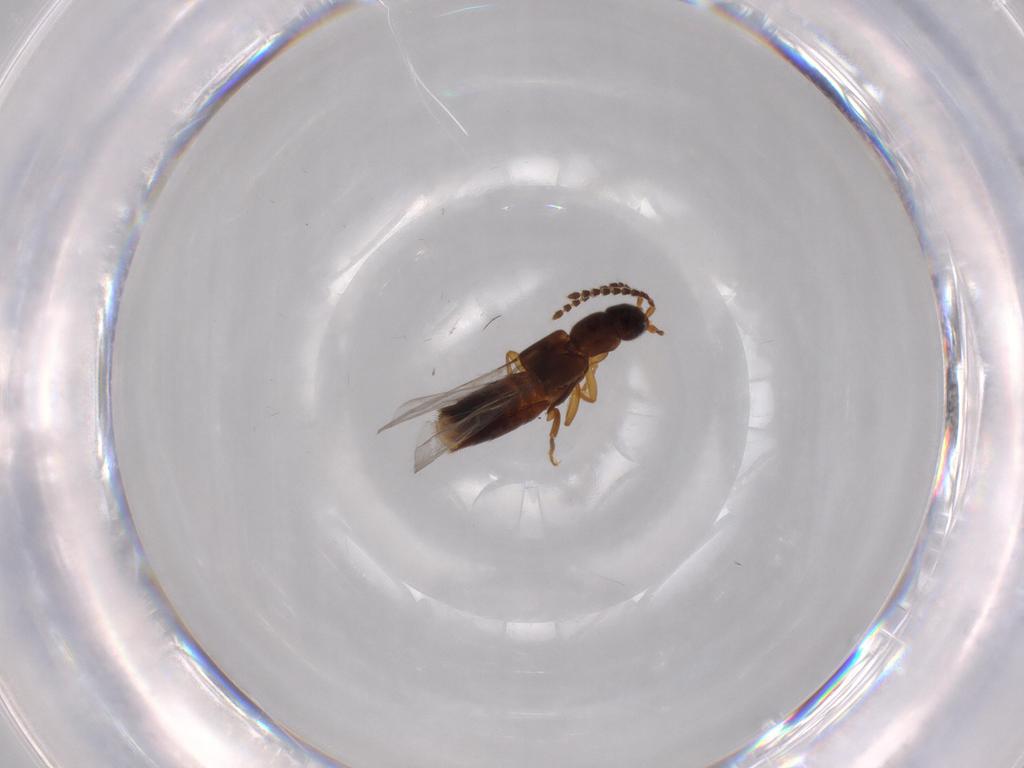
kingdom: Animalia
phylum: Arthropoda
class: Insecta
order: Coleoptera
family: Staphylinidae
